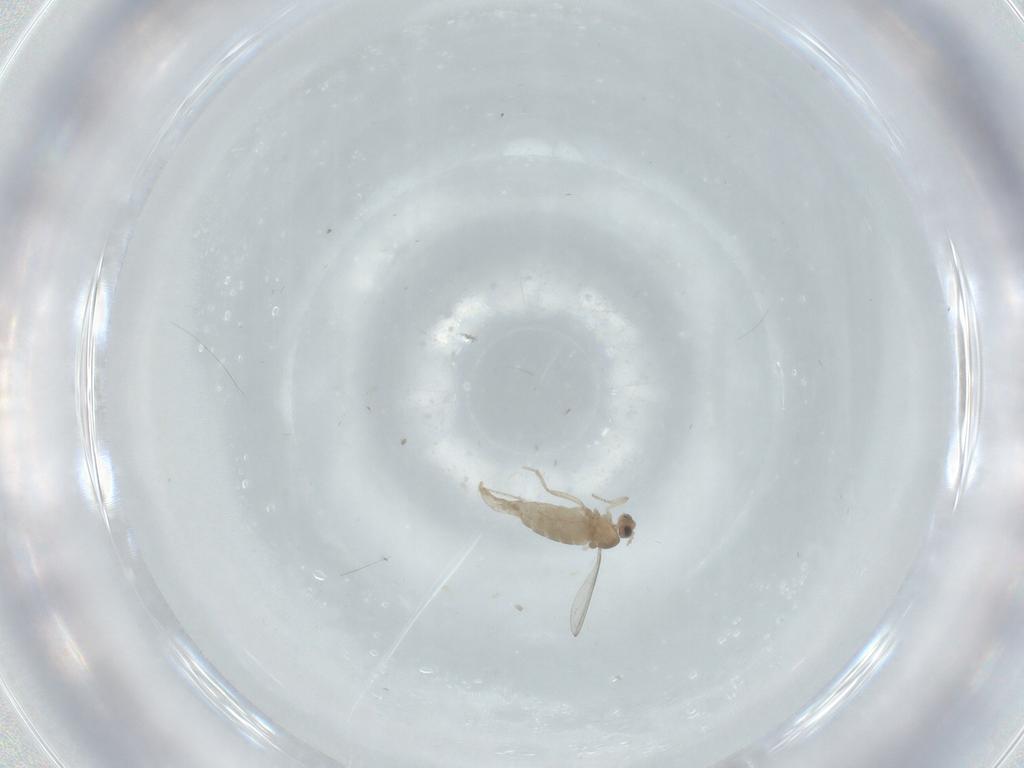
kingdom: Animalia
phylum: Arthropoda
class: Insecta
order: Diptera
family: Cecidomyiidae
